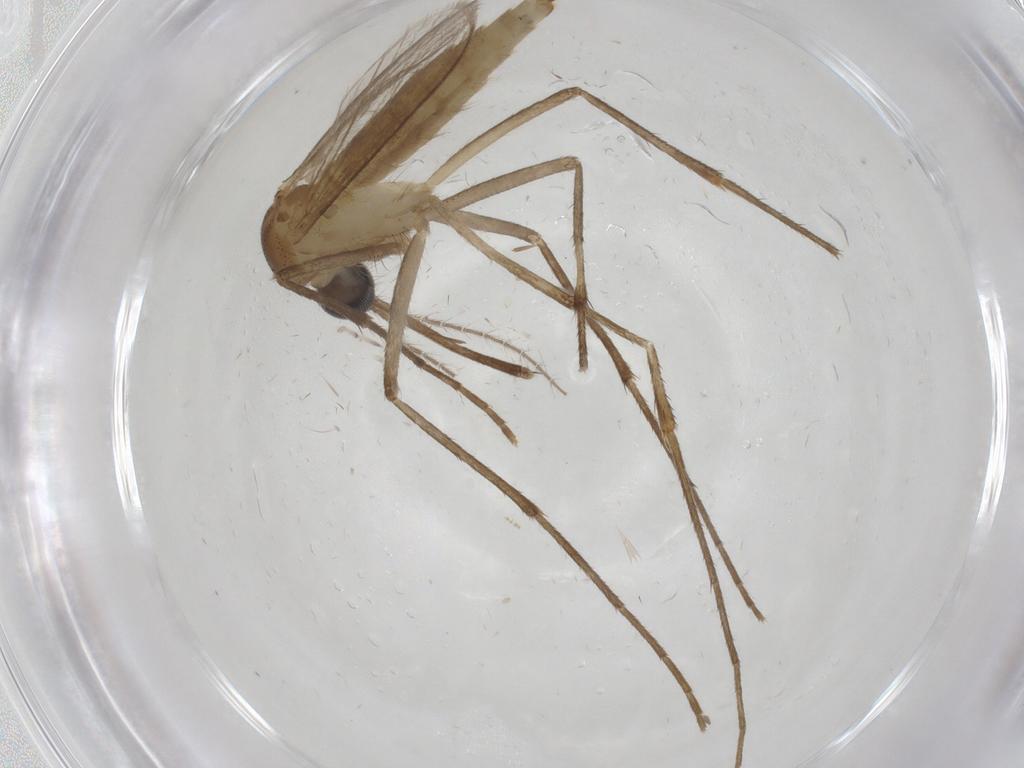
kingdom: Animalia
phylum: Arthropoda
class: Insecta
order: Diptera
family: Culicidae
